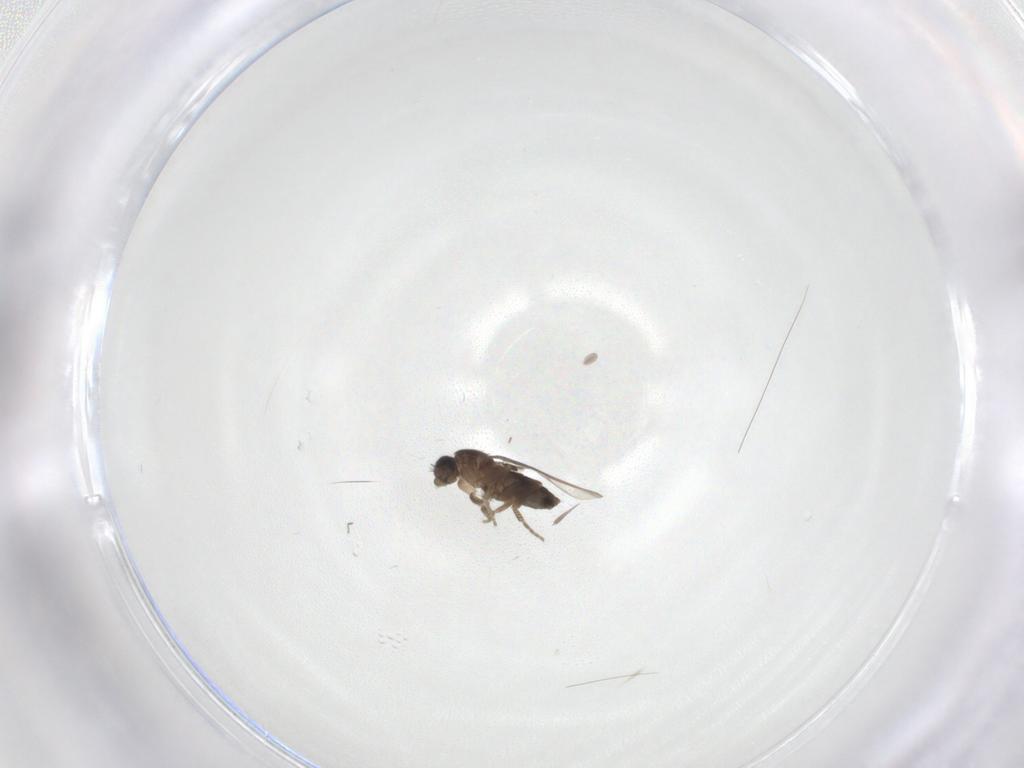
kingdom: Animalia
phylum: Arthropoda
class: Insecta
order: Diptera
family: Phoridae
